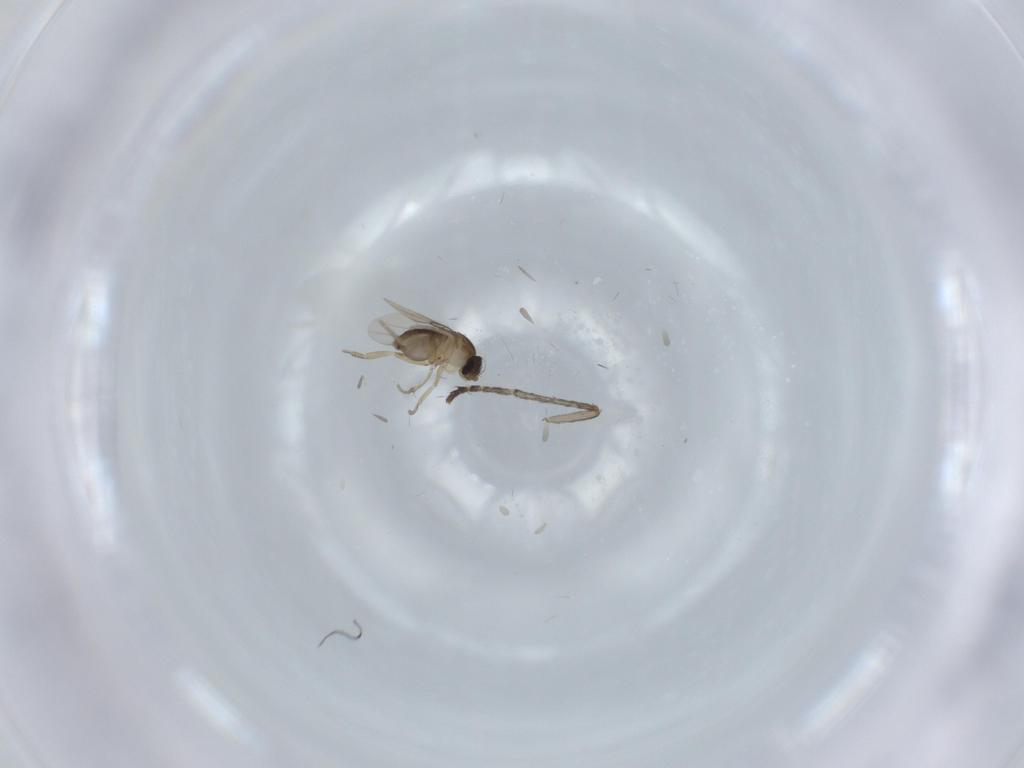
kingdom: Animalia
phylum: Arthropoda
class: Insecta
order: Diptera
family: Phoridae
